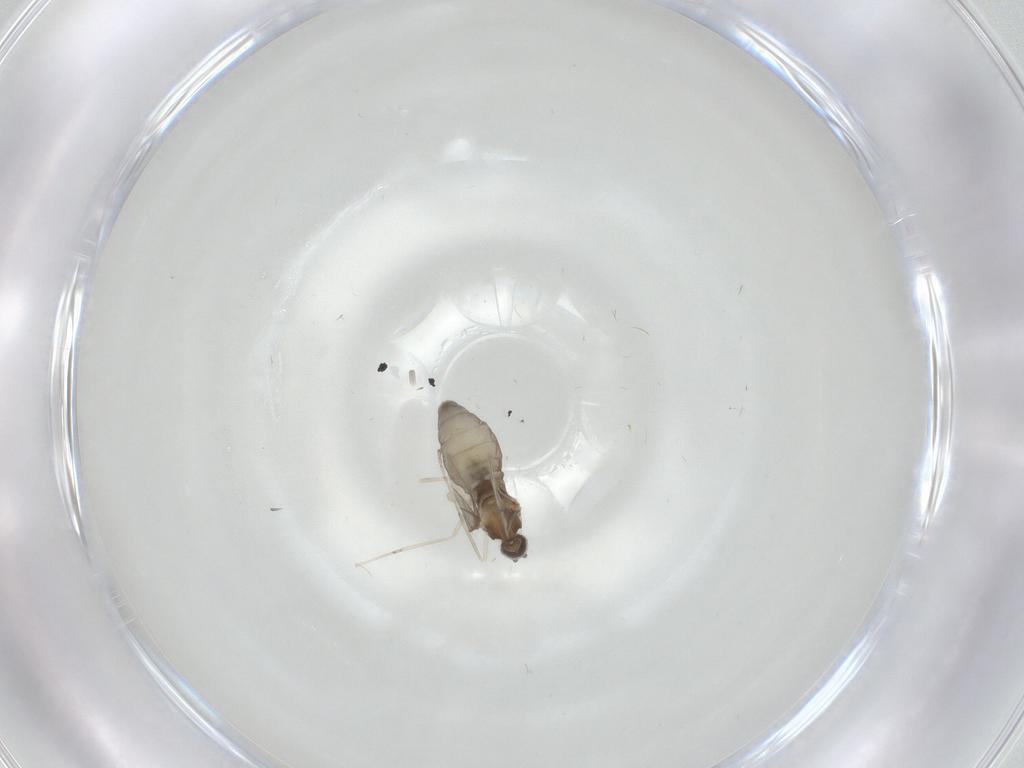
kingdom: Animalia
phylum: Arthropoda
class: Insecta
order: Diptera
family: Cecidomyiidae
